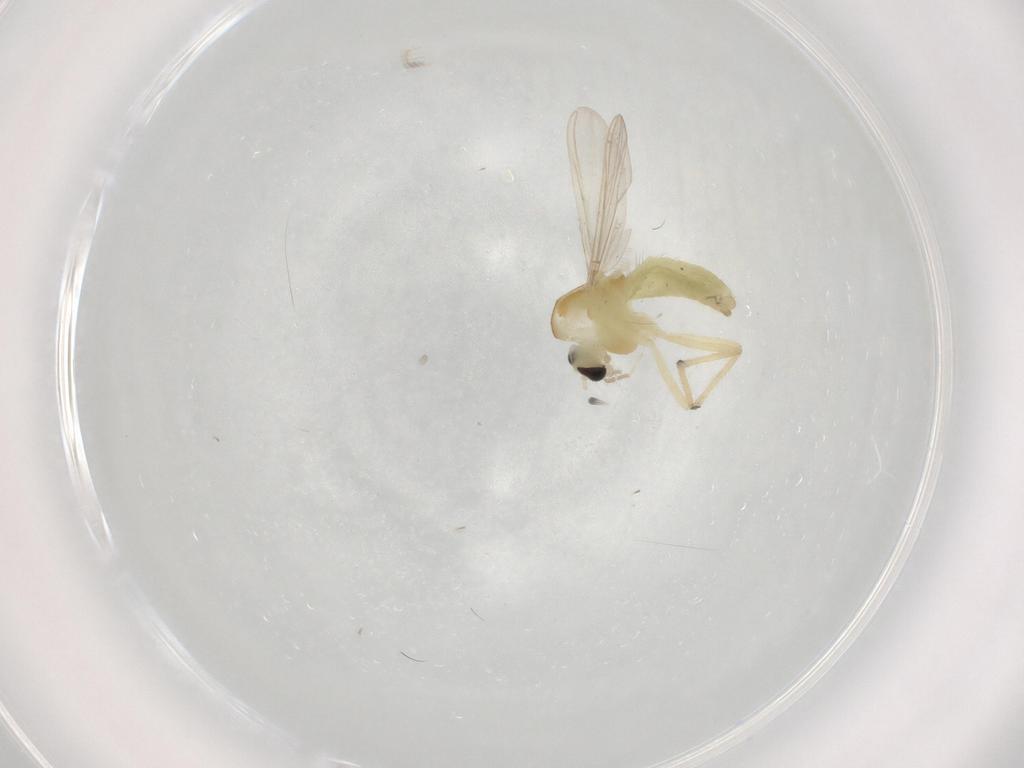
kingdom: Animalia
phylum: Arthropoda
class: Insecta
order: Diptera
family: Chironomidae
